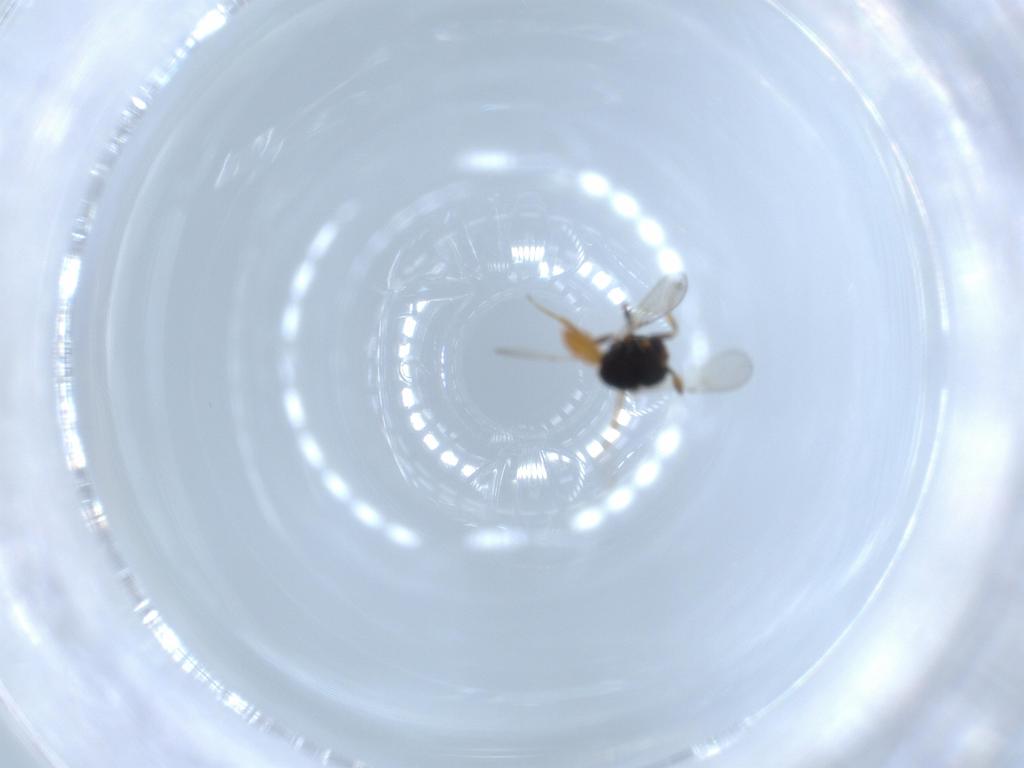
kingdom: Animalia
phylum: Arthropoda
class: Insecta
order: Hymenoptera
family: Scelionidae
